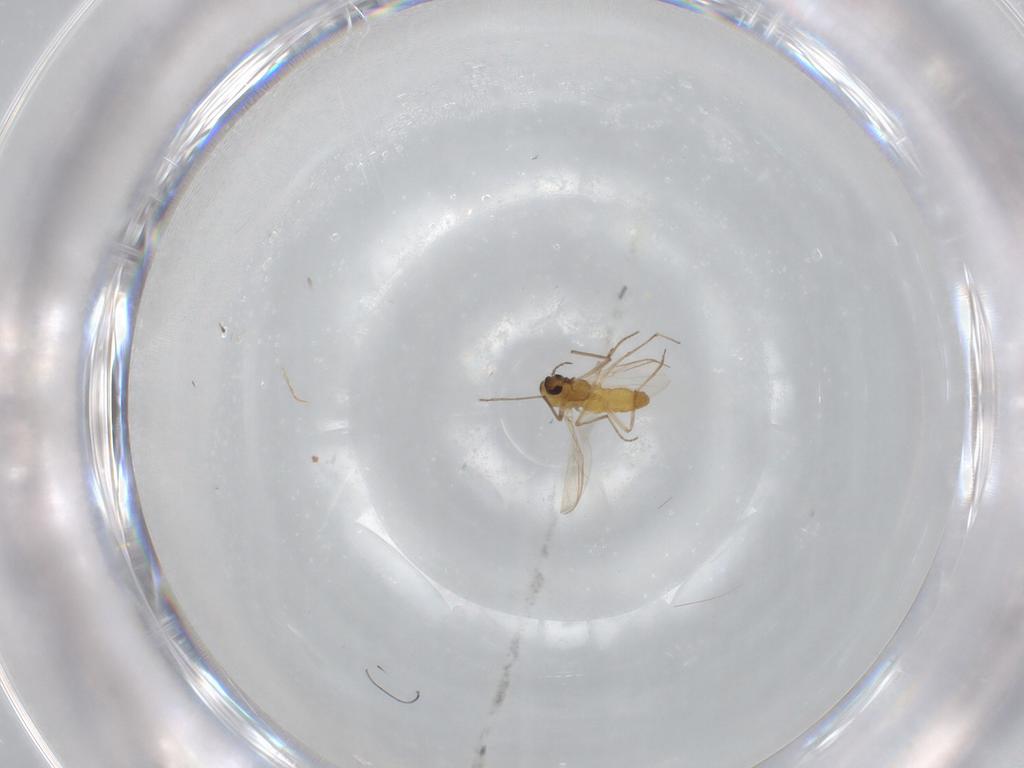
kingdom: Animalia
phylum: Arthropoda
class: Insecta
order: Diptera
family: Chironomidae
